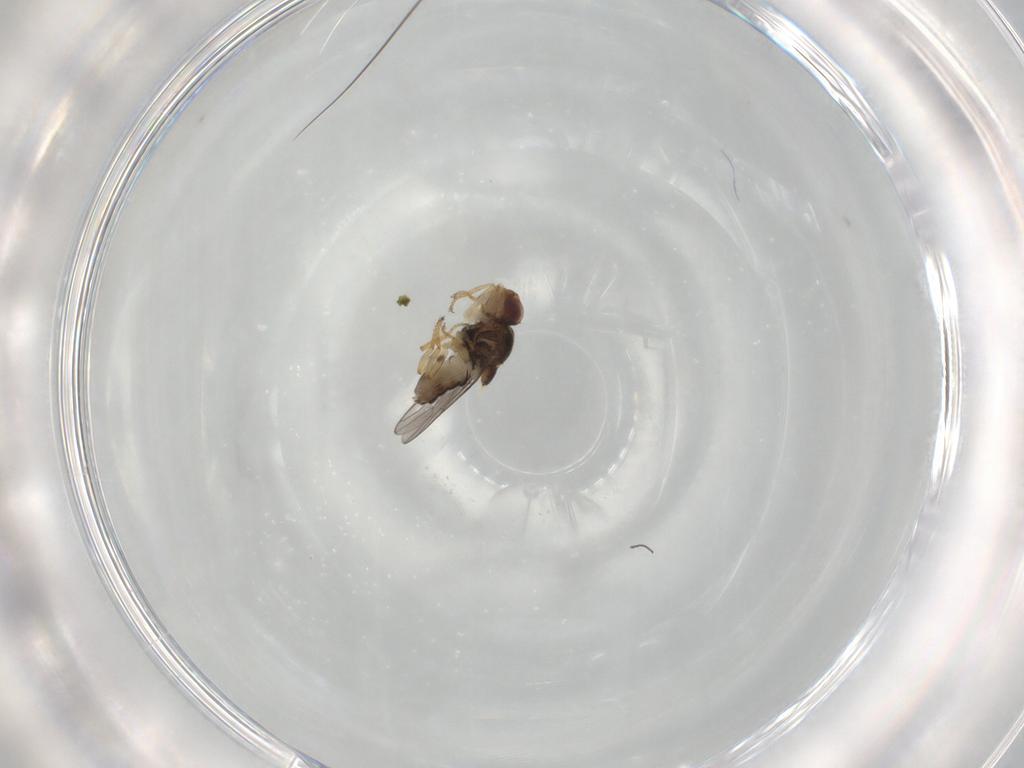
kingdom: Animalia
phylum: Arthropoda
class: Insecta
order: Diptera
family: Chloropidae
